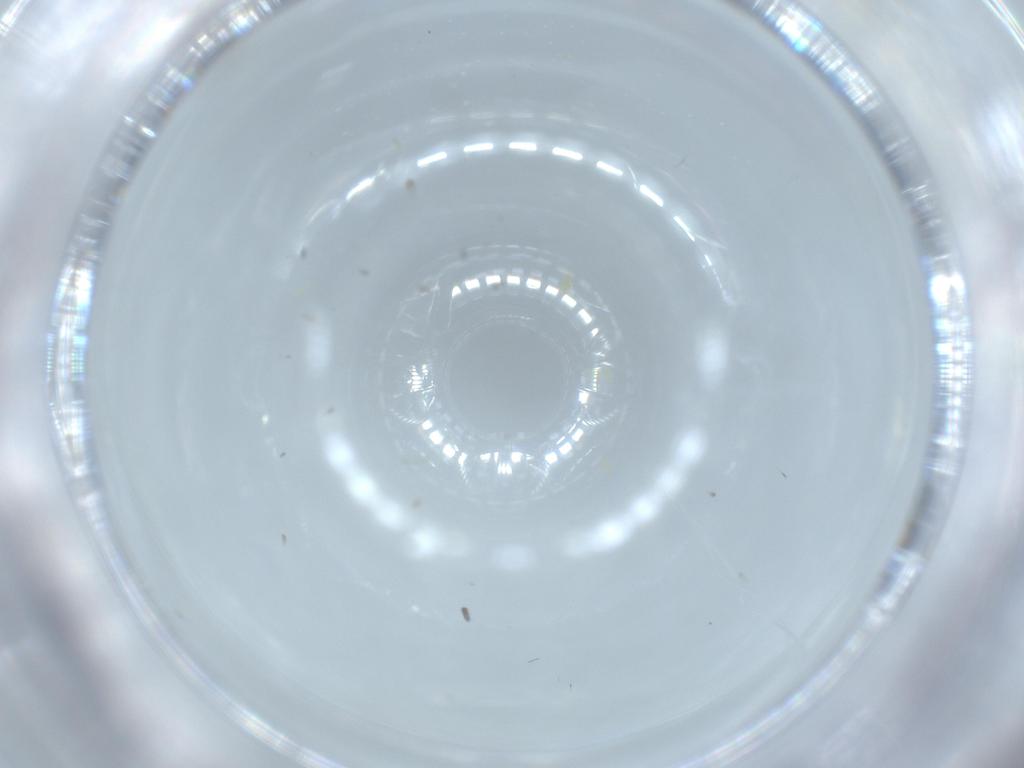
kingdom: Animalia
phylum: Arthropoda
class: Insecta
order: Diptera
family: Cecidomyiidae
